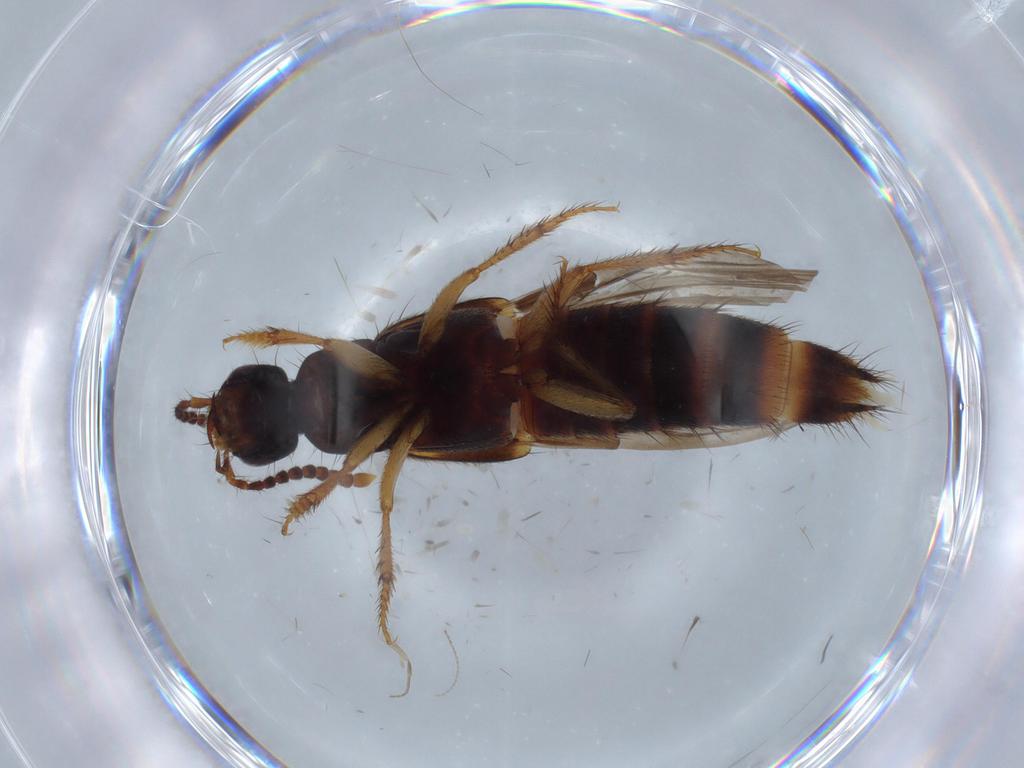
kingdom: Animalia
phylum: Arthropoda
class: Insecta
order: Coleoptera
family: Staphylinidae
